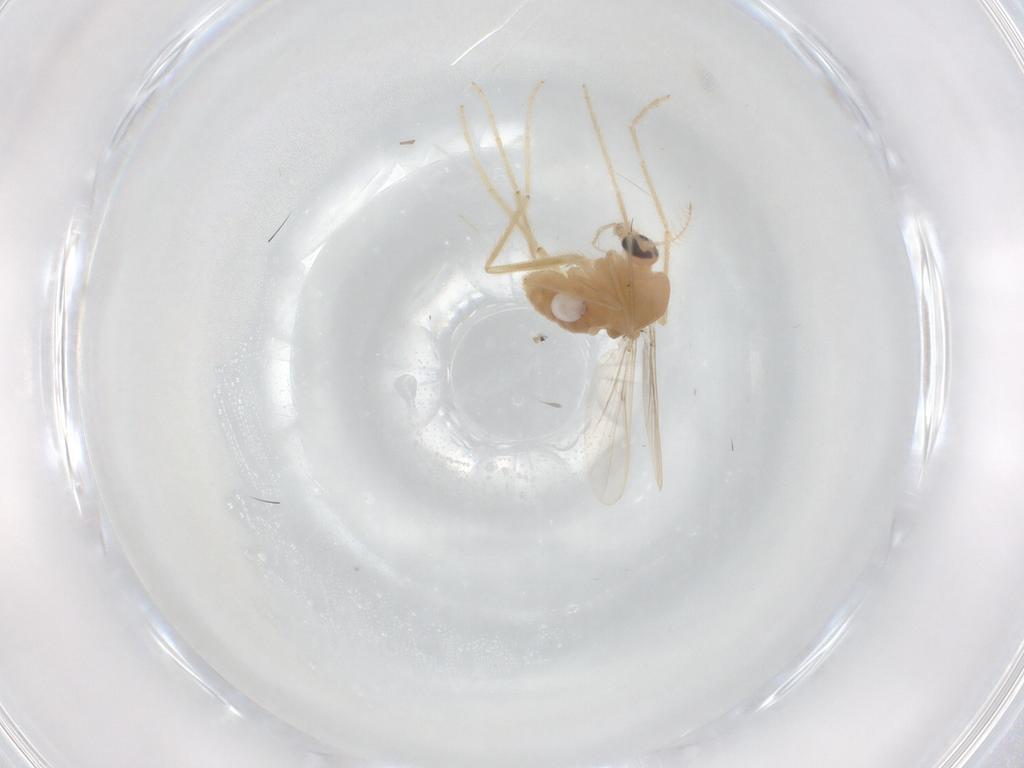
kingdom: Animalia
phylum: Arthropoda
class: Insecta
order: Diptera
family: Chironomidae
